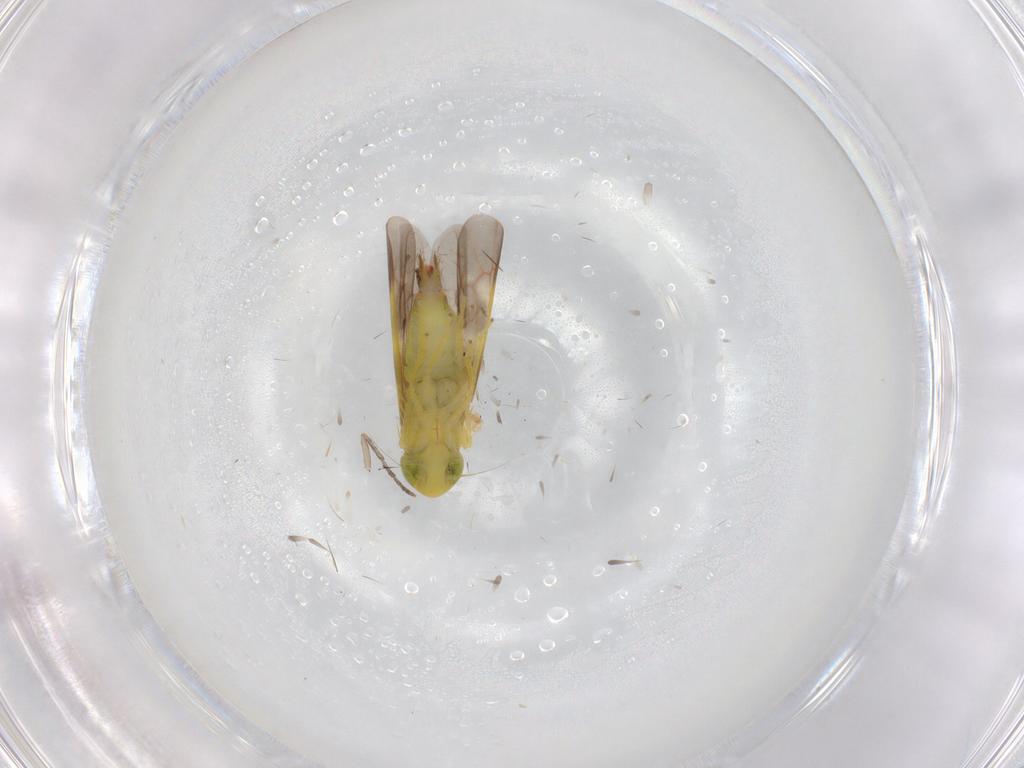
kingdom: Animalia
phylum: Arthropoda
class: Insecta
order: Hemiptera
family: Cicadellidae
